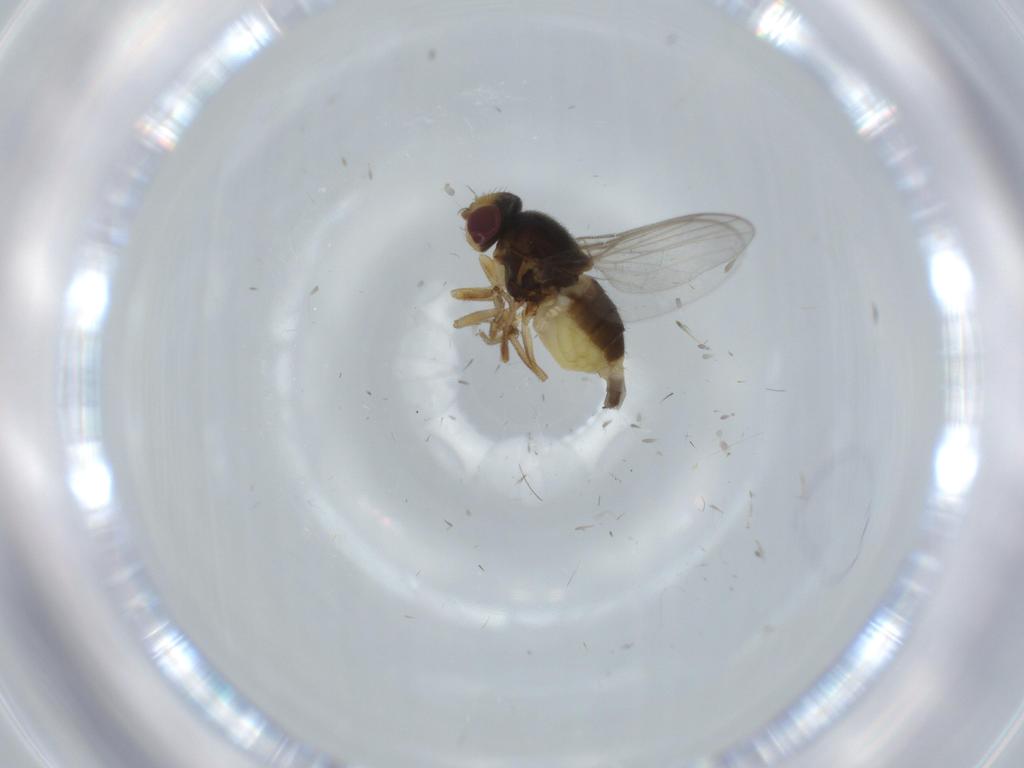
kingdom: Animalia
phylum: Arthropoda
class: Insecta
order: Diptera
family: Chloropidae
